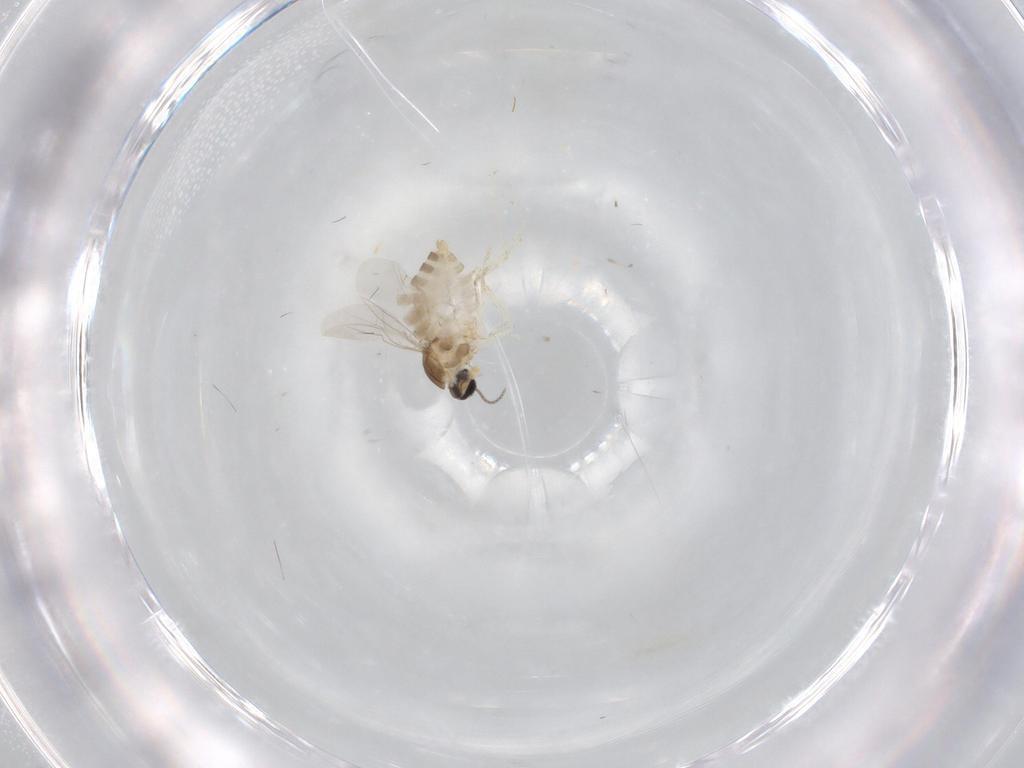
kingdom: Animalia
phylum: Arthropoda
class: Insecta
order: Diptera
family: Cecidomyiidae
